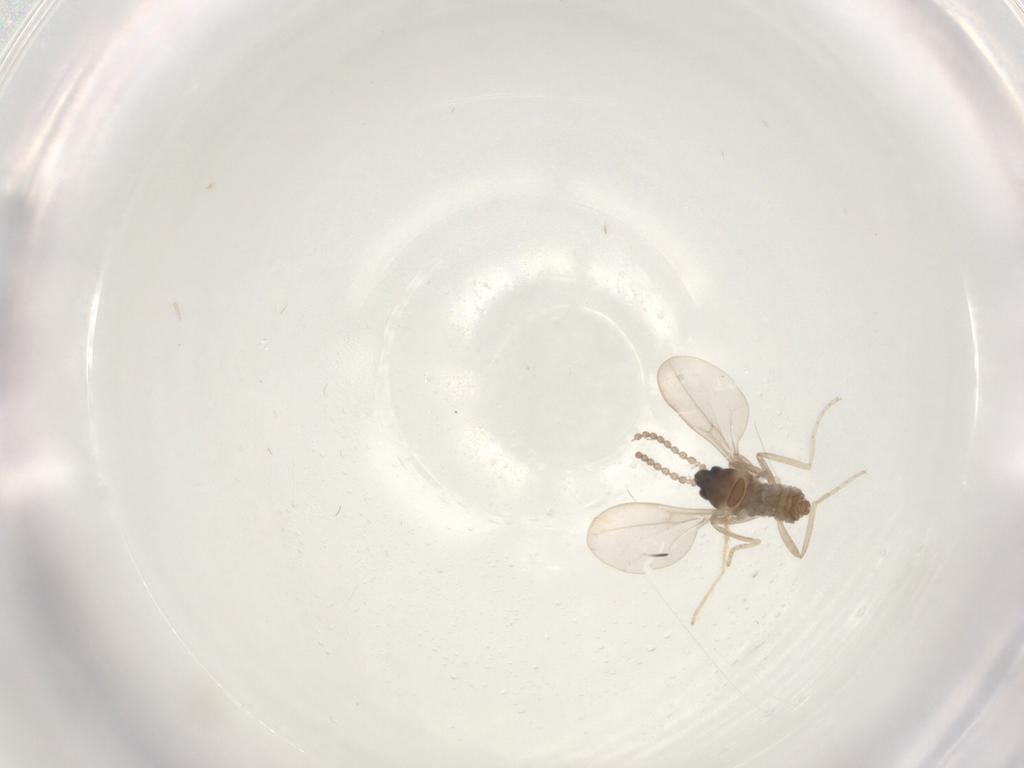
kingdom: Animalia
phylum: Arthropoda
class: Insecta
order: Diptera
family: Cecidomyiidae
